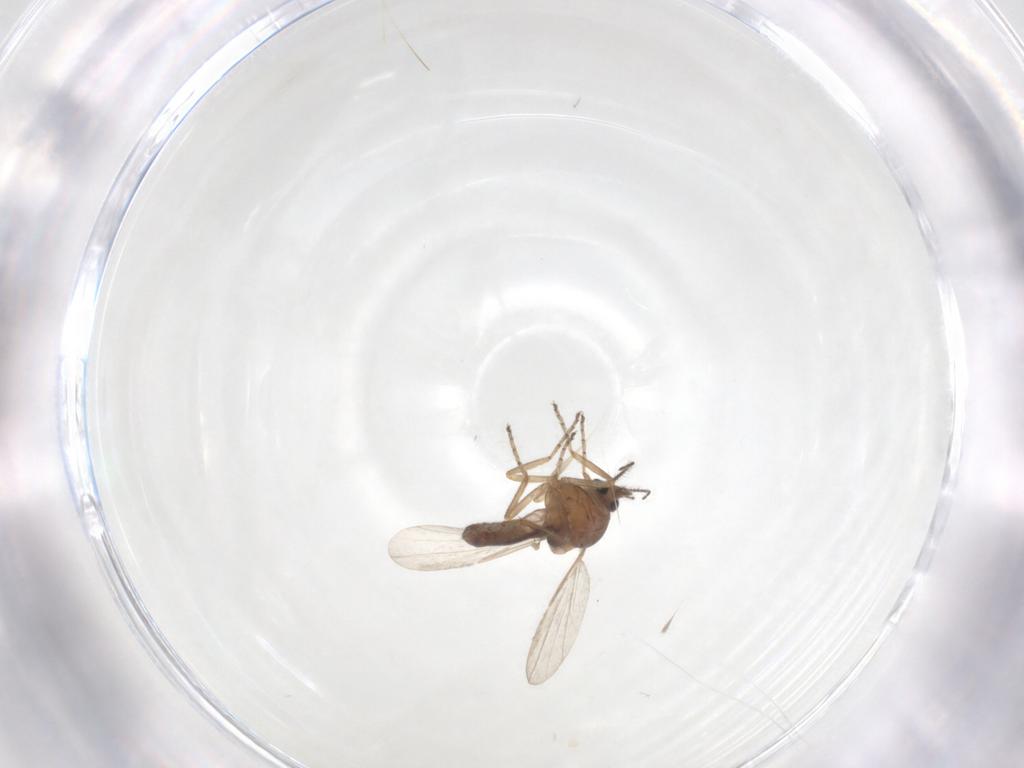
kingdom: Animalia
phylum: Arthropoda
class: Insecta
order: Diptera
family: Ceratopogonidae
